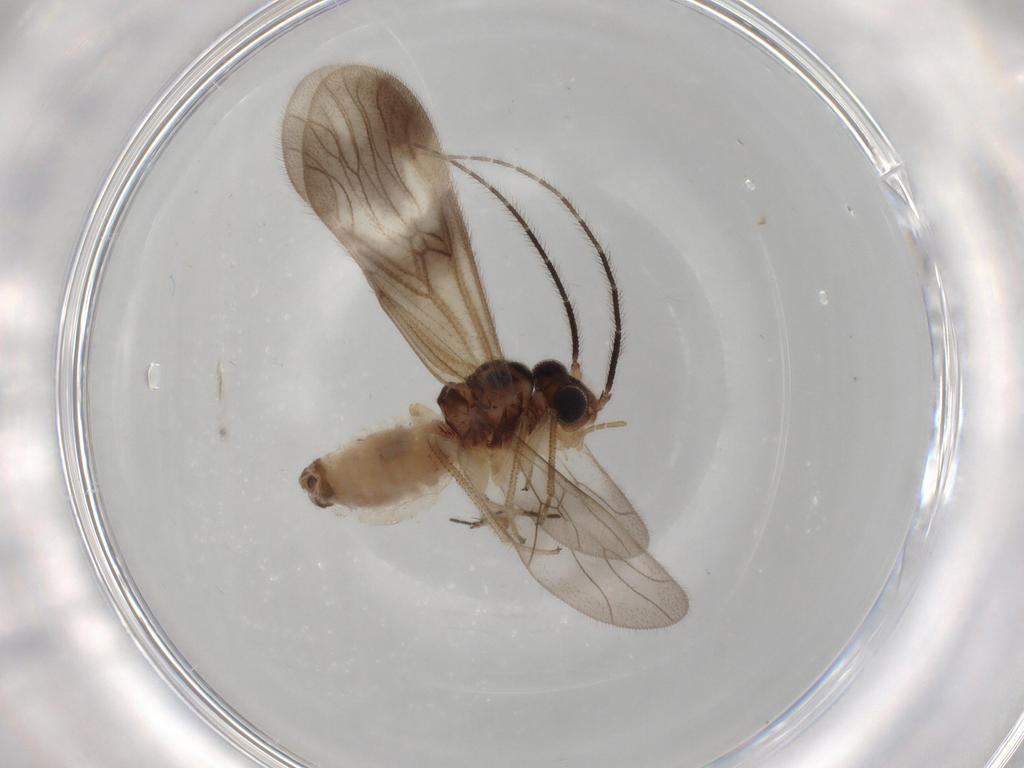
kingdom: Animalia
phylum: Arthropoda
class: Insecta
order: Psocodea
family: Amphipsocidae
